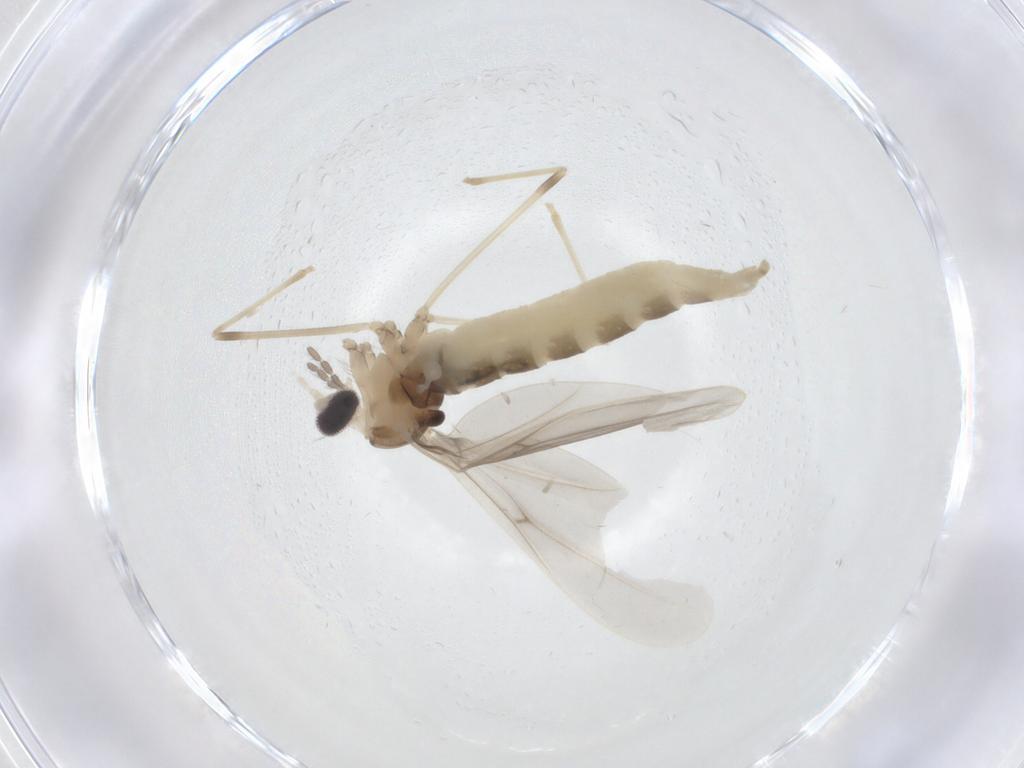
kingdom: Animalia
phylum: Arthropoda
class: Insecta
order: Diptera
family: Cecidomyiidae
